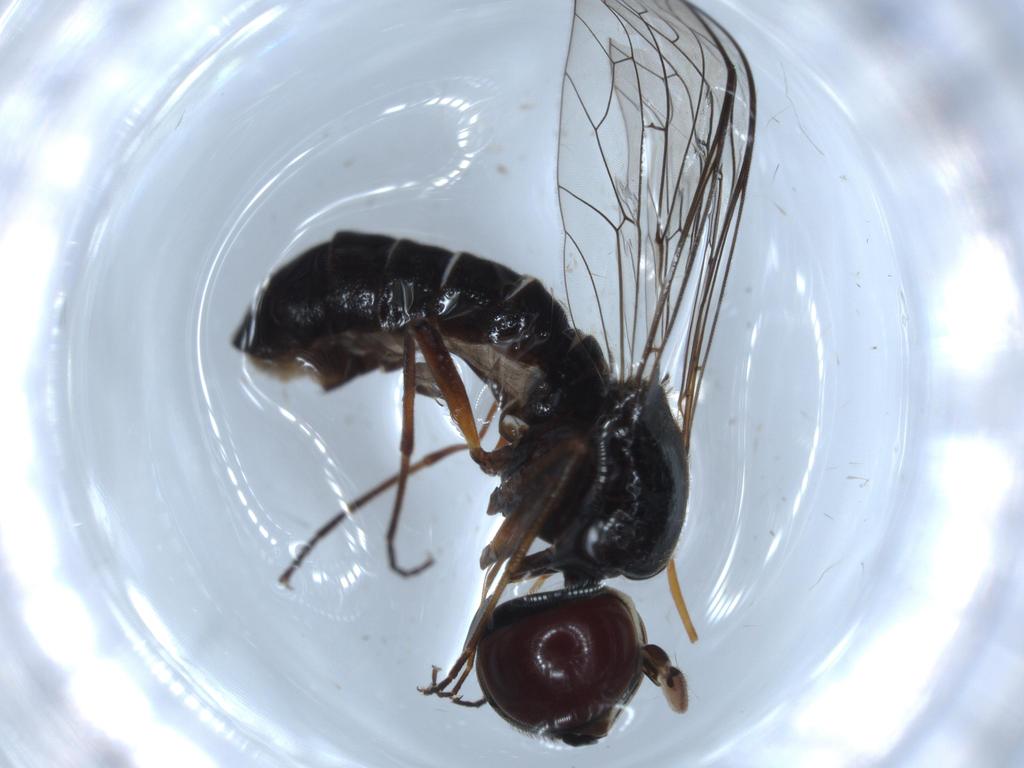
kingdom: Animalia
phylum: Arthropoda
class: Insecta
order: Diptera
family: Bombyliidae
